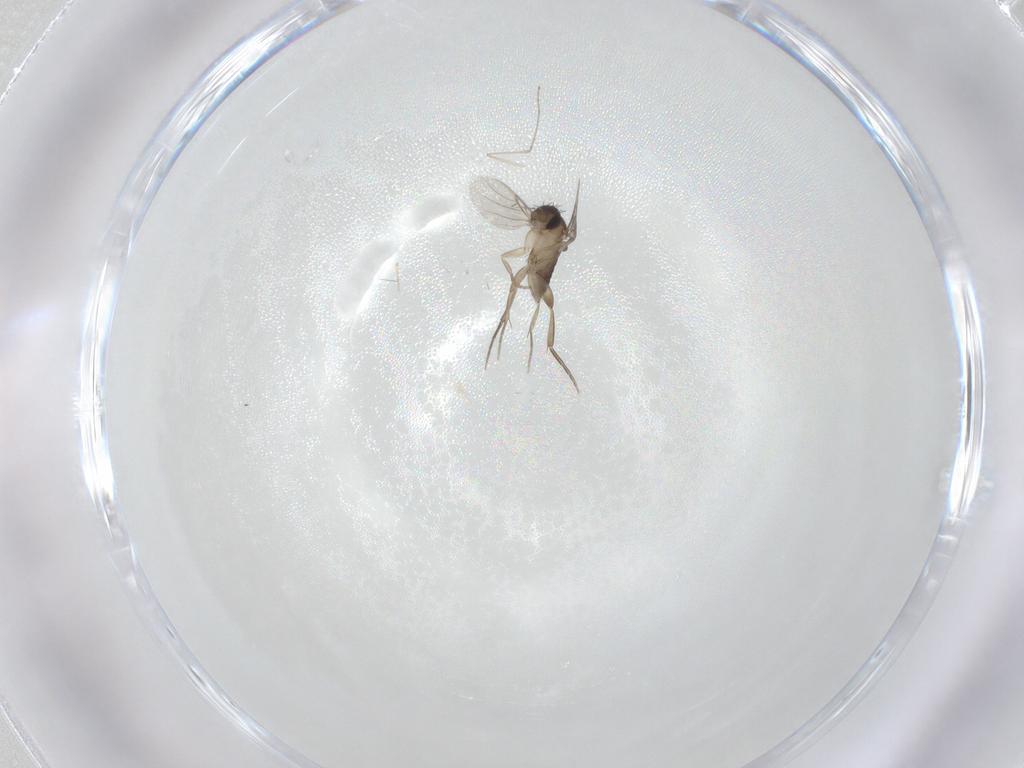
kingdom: Animalia
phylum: Arthropoda
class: Insecta
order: Diptera
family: Cecidomyiidae
